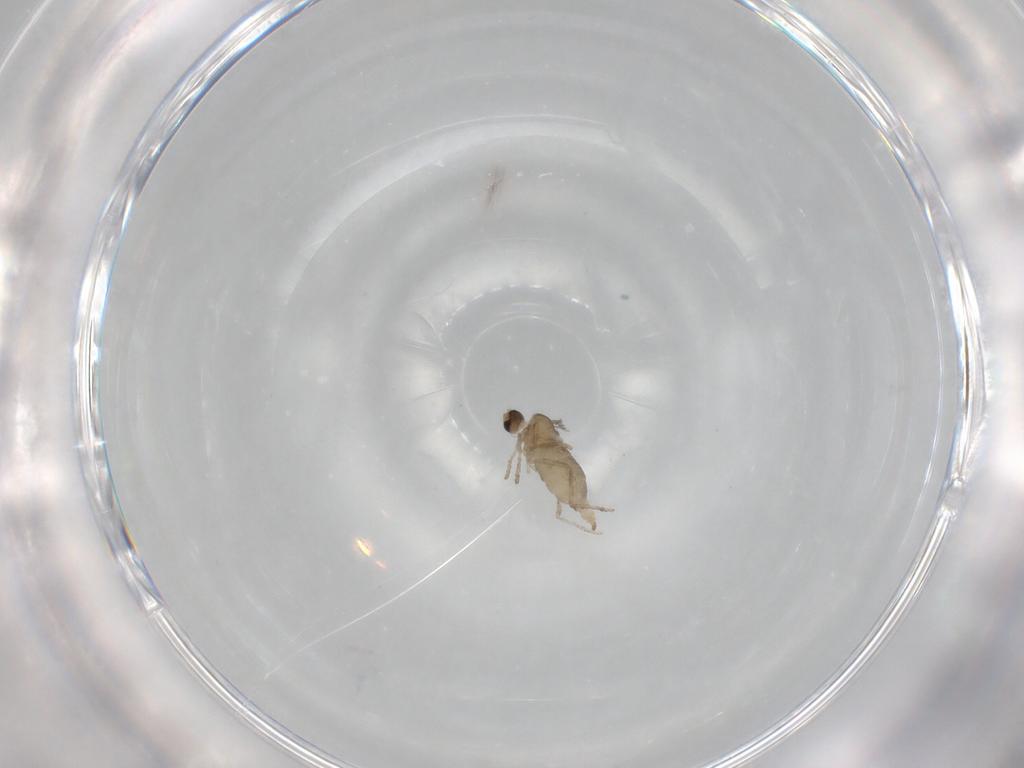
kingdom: Animalia
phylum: Arthropoda
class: Insecta
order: Diptera
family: Cecidomyiidae
